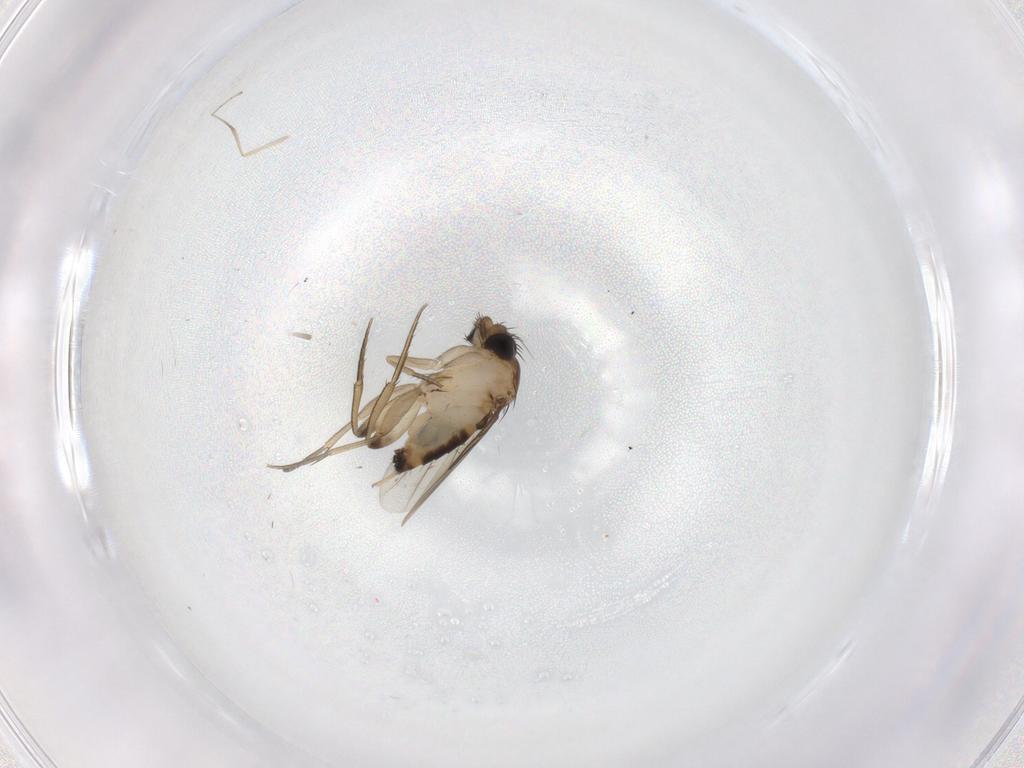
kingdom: Animalia
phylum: Arthropoda
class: Insecta
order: Diptera
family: Phoridae
